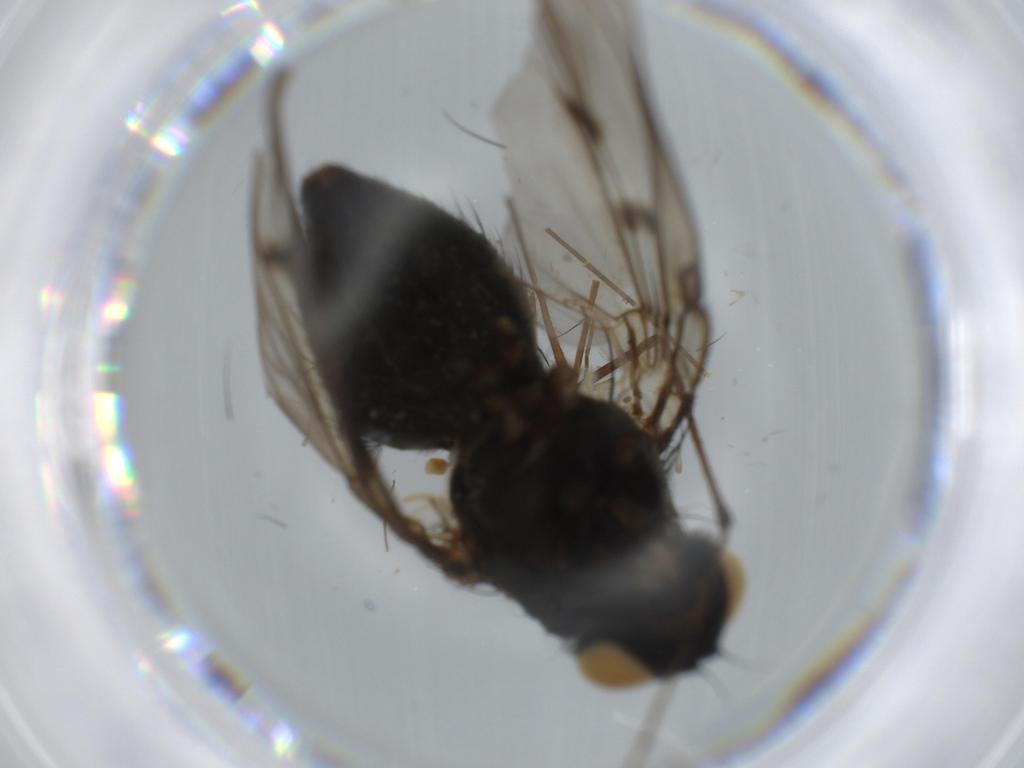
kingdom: Animalia
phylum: Arthropoda
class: Insecta
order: Diptera
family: Muscidae
